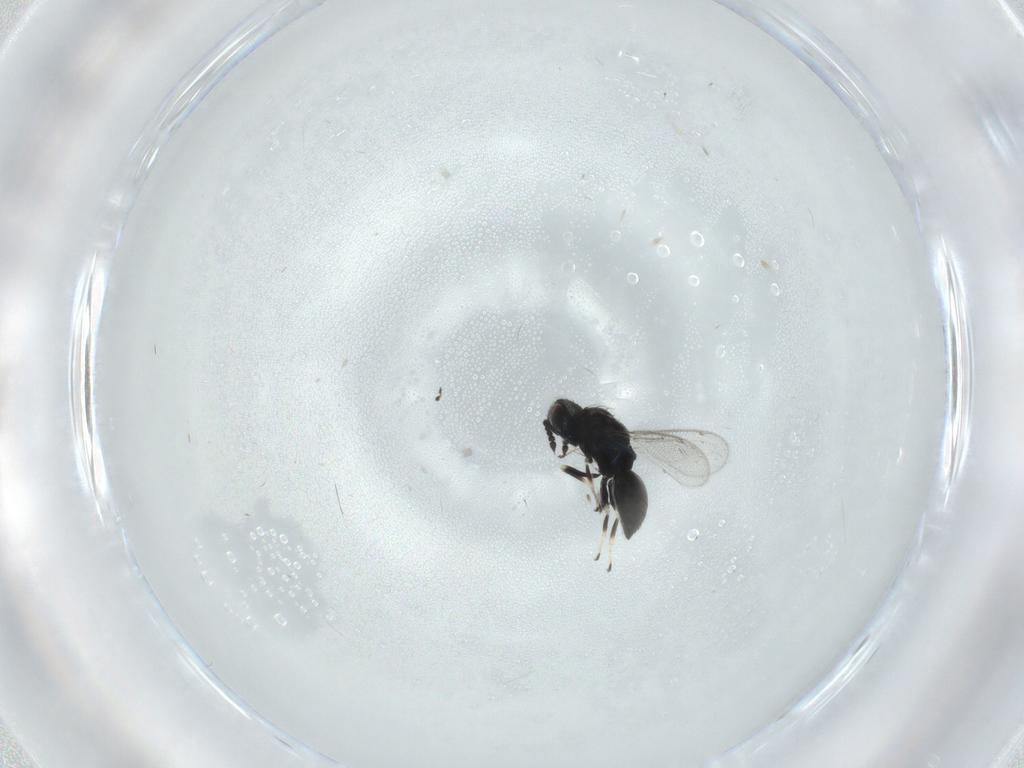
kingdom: Animalia
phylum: Arthropoda
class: Insecta
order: Hymenoptera
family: Eulophidae
